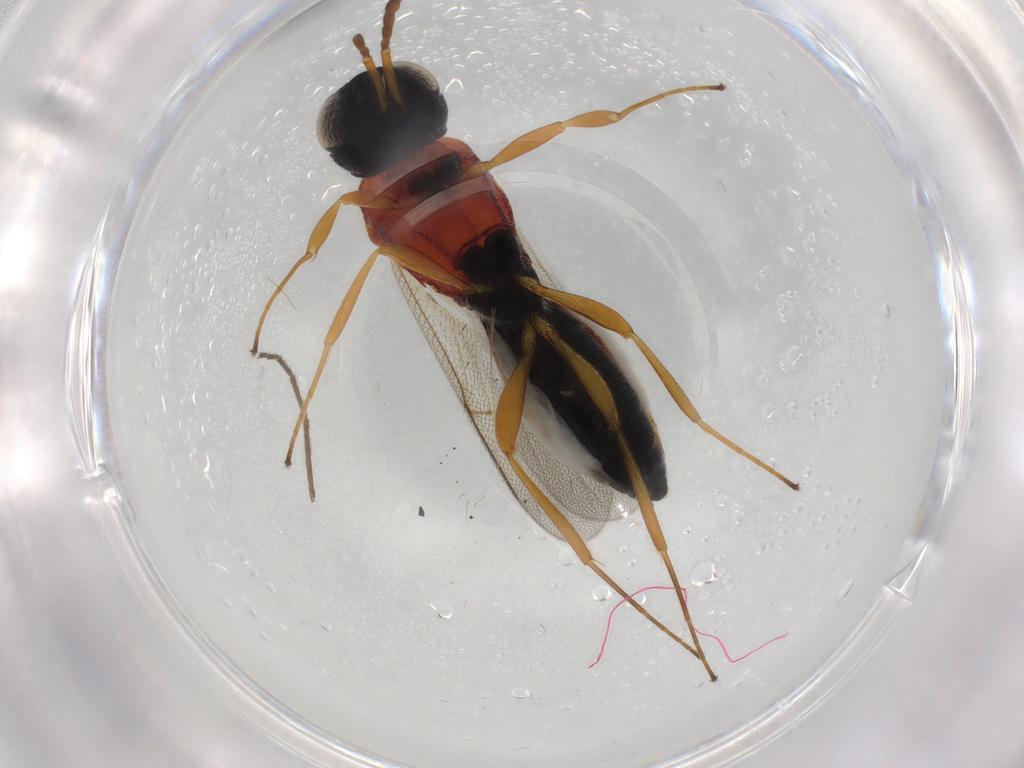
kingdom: Animalia
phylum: Arthropoda
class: Insecta
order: Hymenoptera
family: Scelionidae
